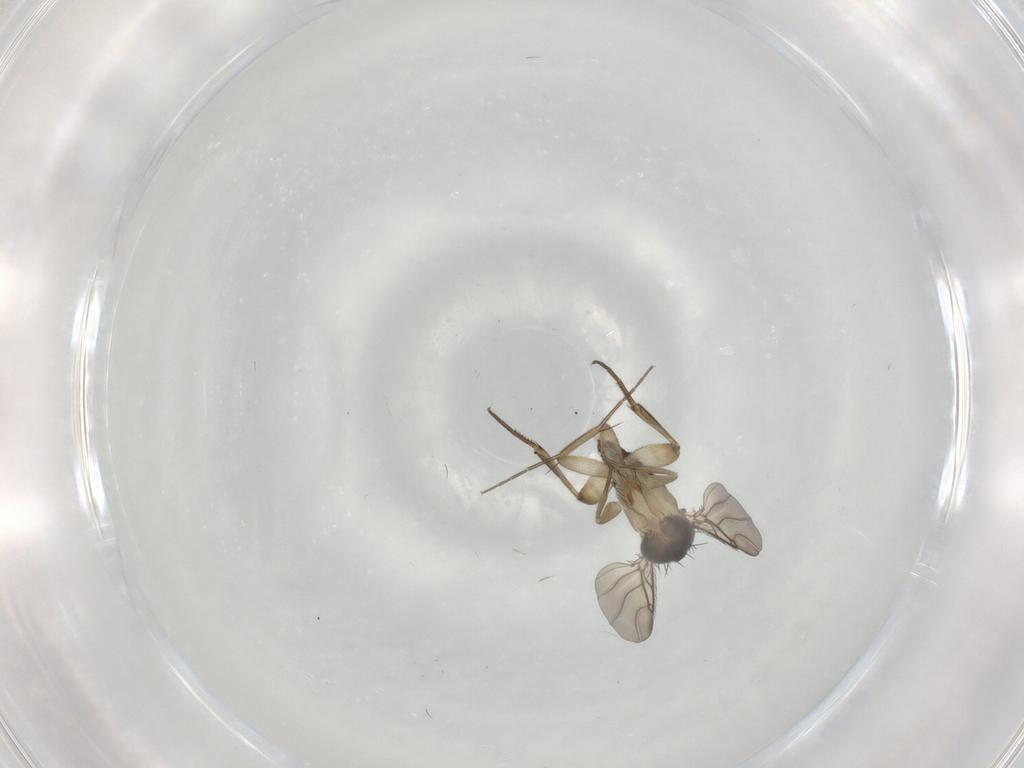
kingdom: Animalia
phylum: Arthropoda
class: Insecta
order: Diptera
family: Phoridae
